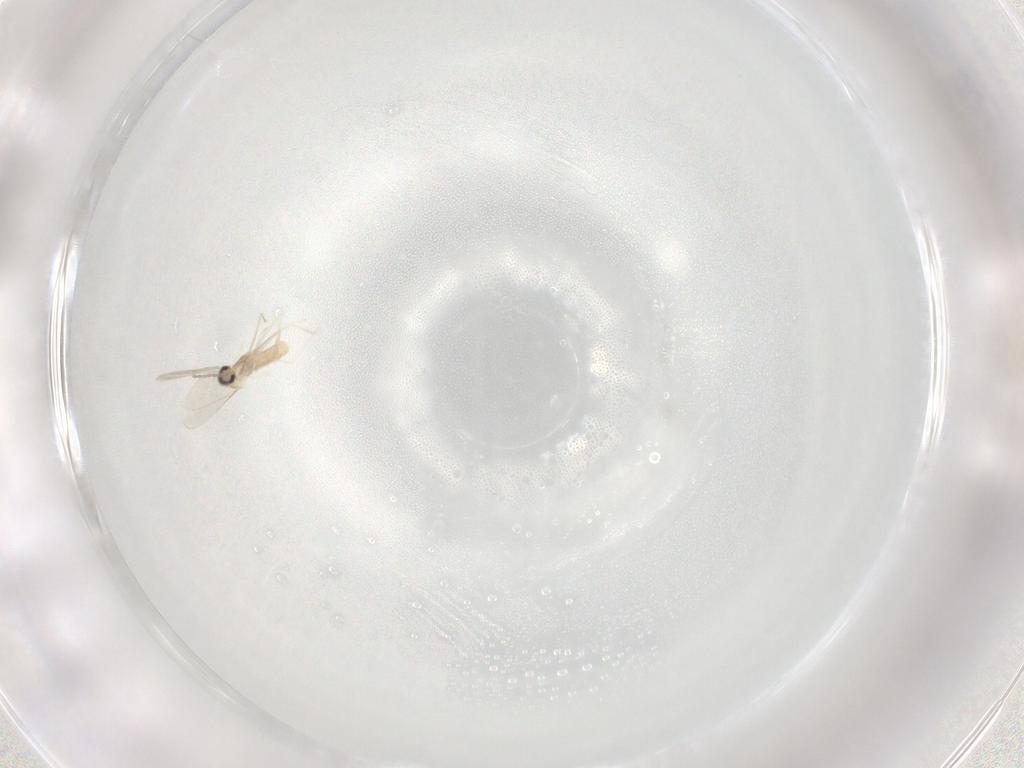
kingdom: Animalia
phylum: Arthropoda
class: Insecta
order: Diptera
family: Cecidomyiidae
